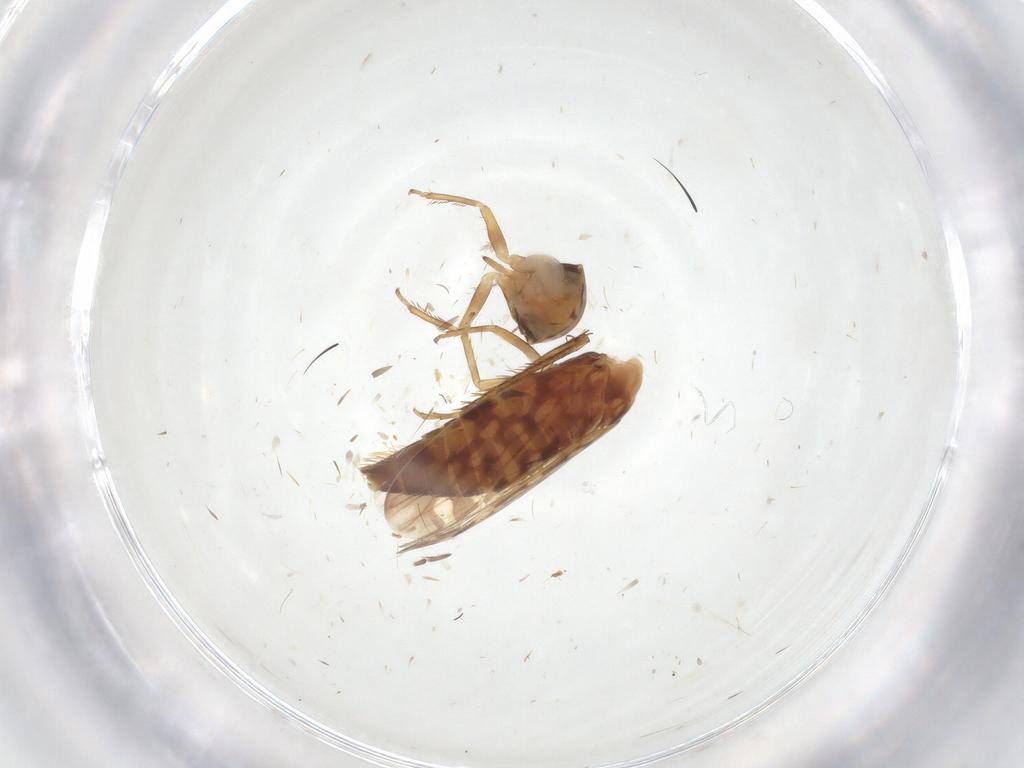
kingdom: Animalia
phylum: Arthropoda
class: Insecta
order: Hemiptera
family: Cicadellidae
